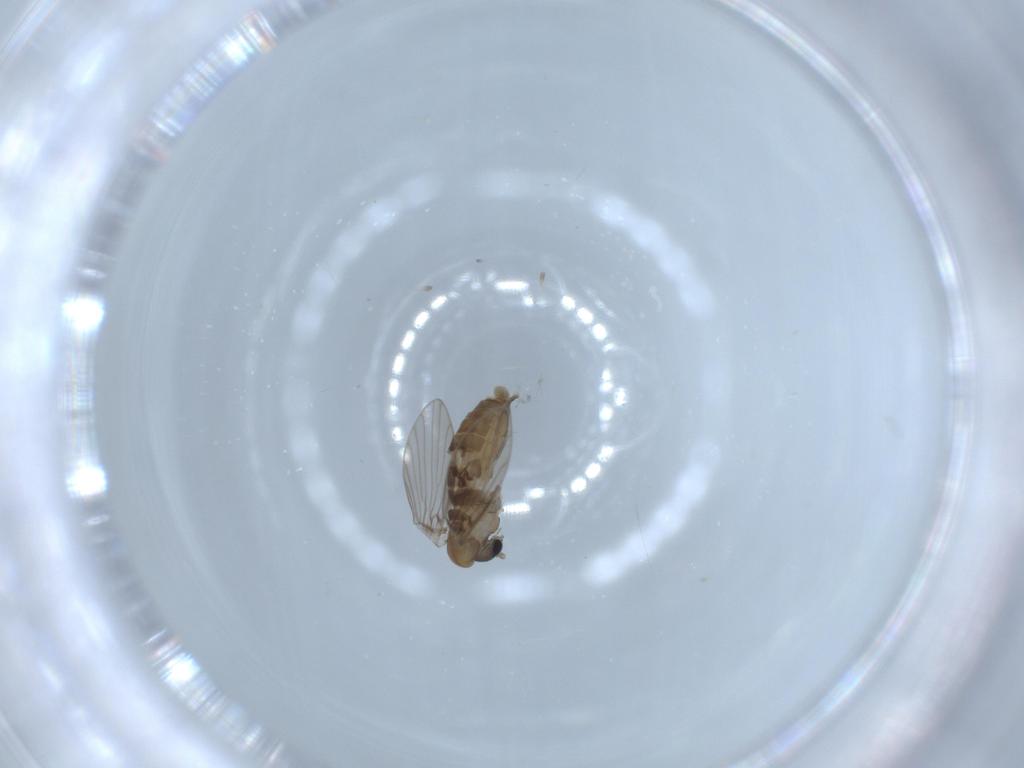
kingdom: Animalia
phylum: Arthropoda
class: Insecta
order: Diptera
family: Psychodidae
